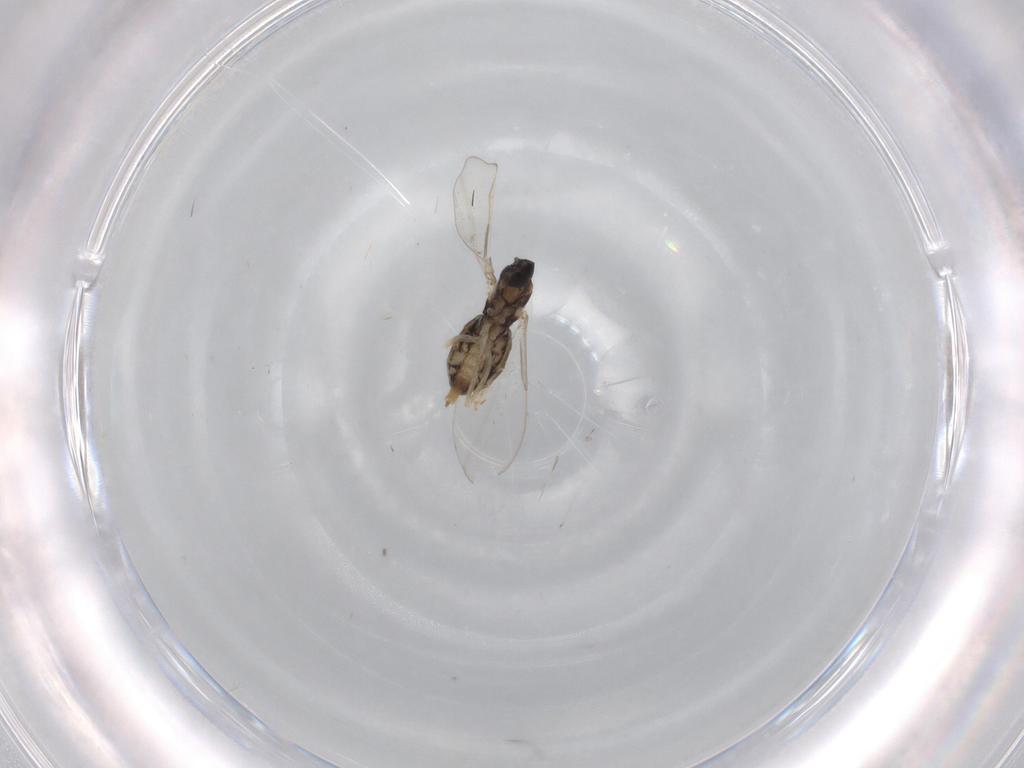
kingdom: Animalia
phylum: Arthropoda
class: Insecta
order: Diptera
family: Cecidomyiidae
